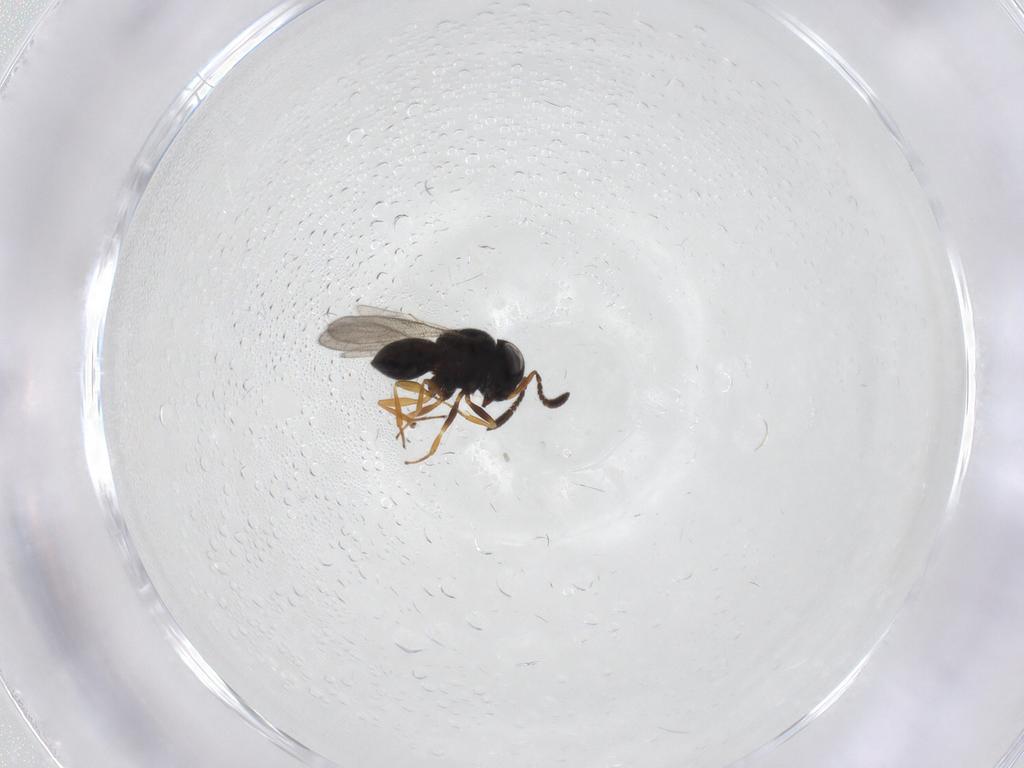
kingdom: Animalia
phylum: Arthropoda
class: Insecta
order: Hymenoptera
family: Scelionidae
